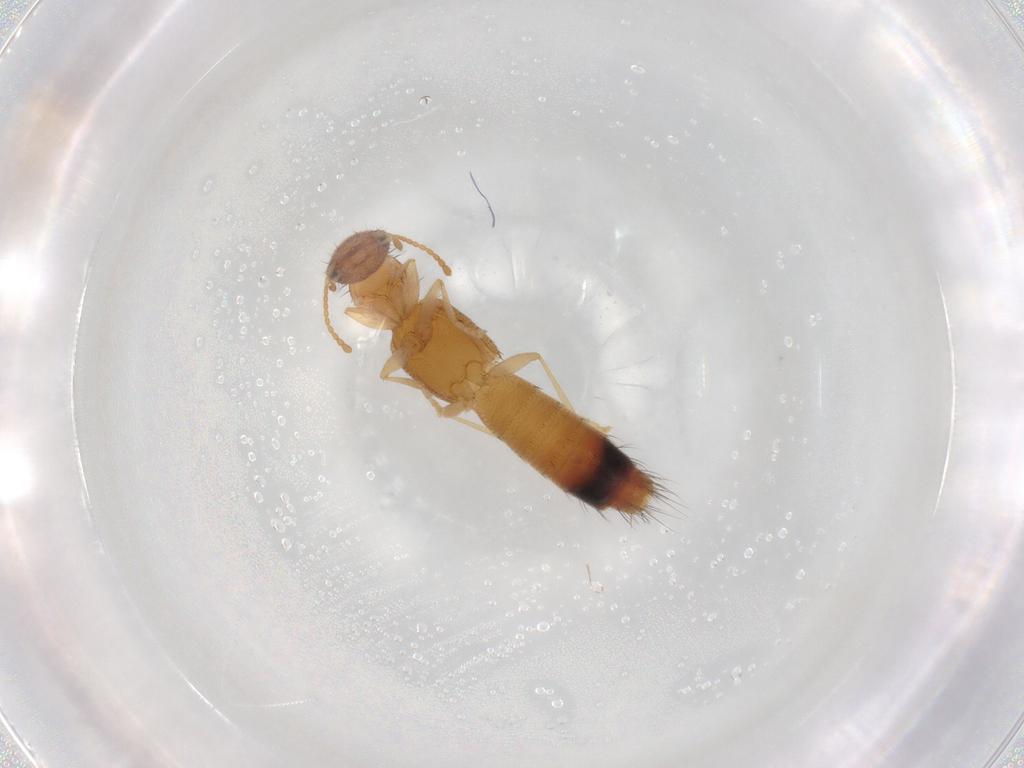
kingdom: Animalia
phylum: Arthropoda
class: Insecta
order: Coleoptera
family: Staphylinidae
